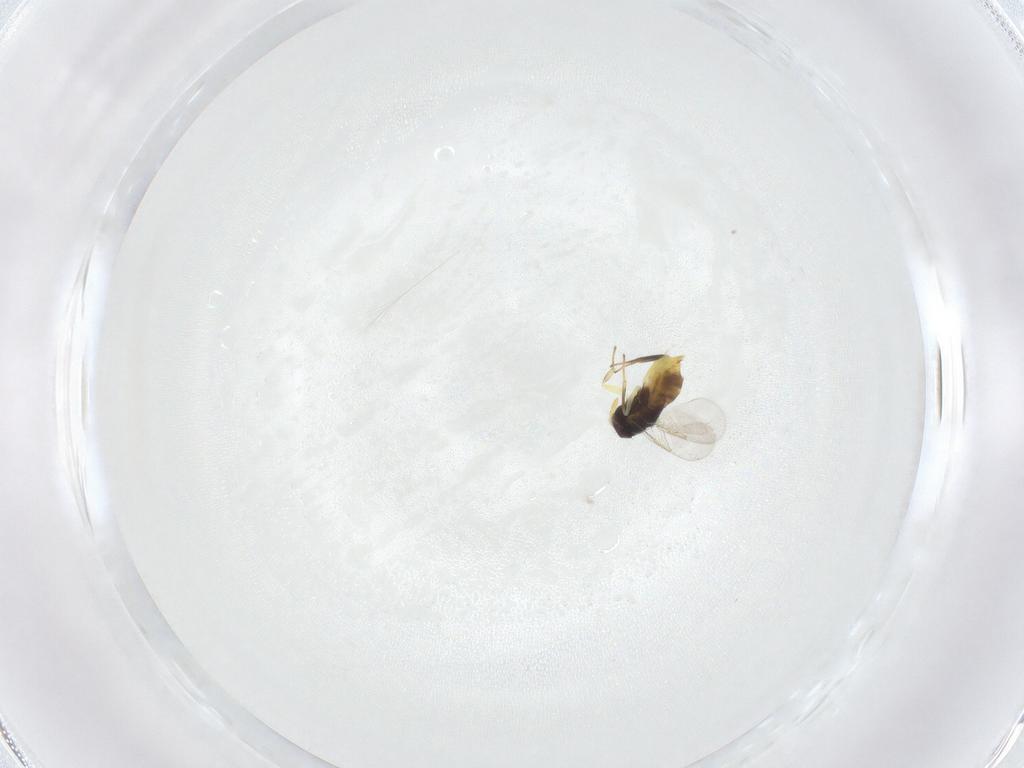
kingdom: Animalia
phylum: Arthropoda
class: Insecta
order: Hymenoptera
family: Aphelinidae
